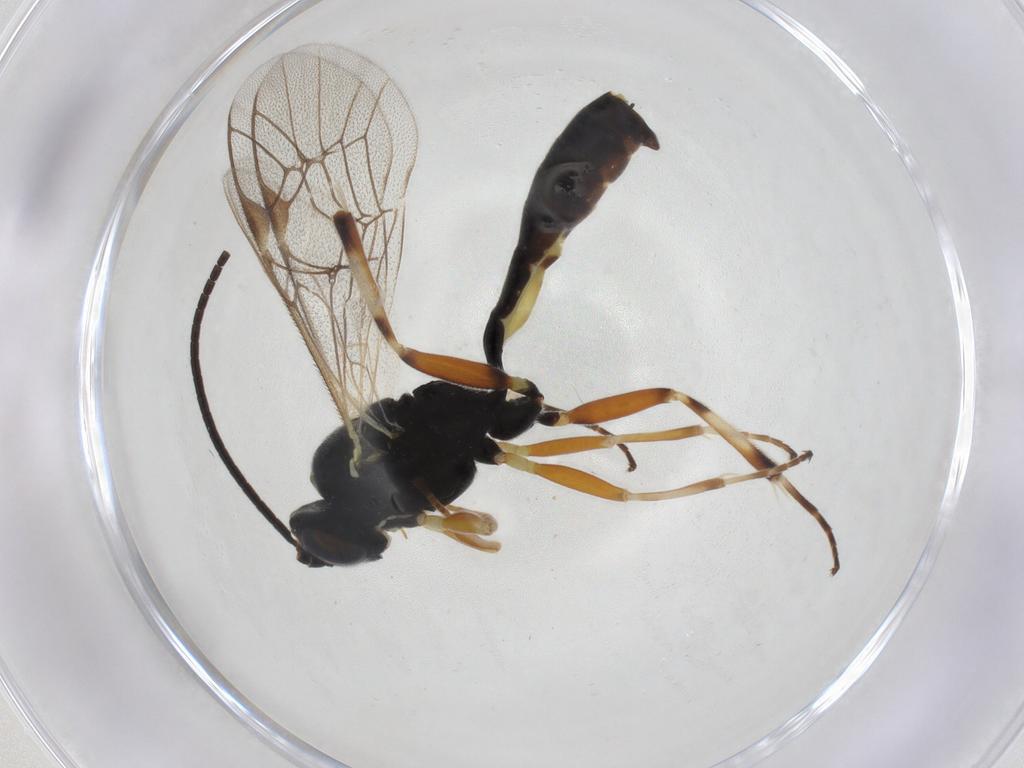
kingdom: Animalia
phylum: Arthropoda
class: Insecta
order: Hymenoptera
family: Ichneumonidae
